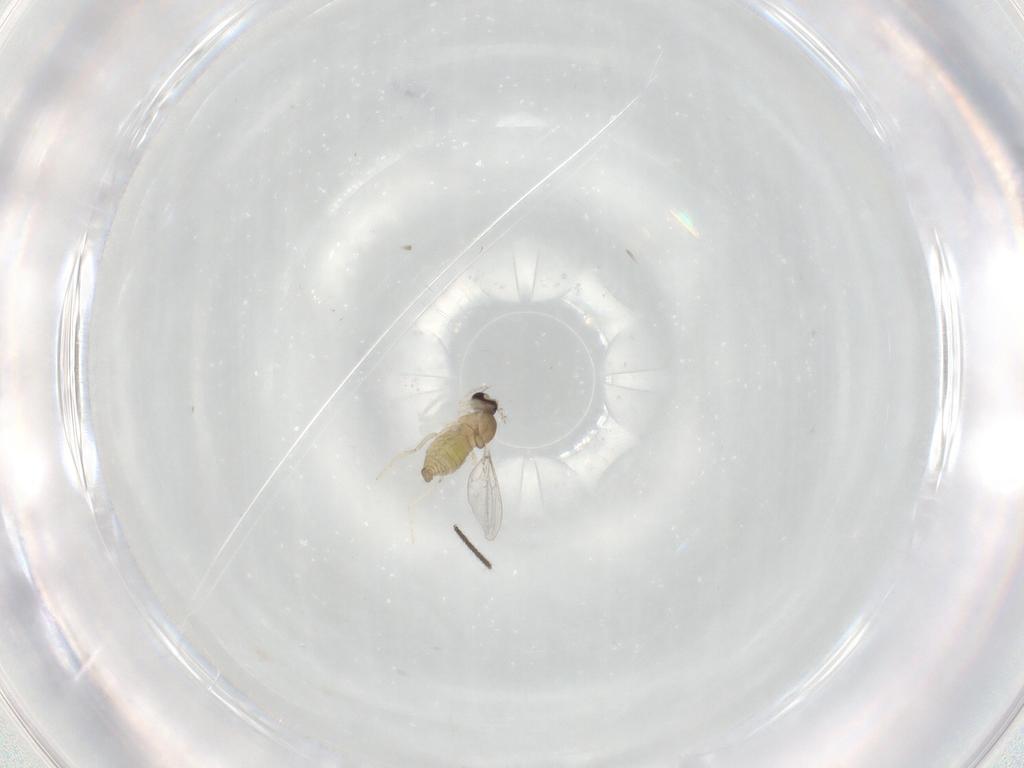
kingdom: Animalia
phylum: Arthropoda
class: Insecta
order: Diptera
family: Cecidomyiidae
